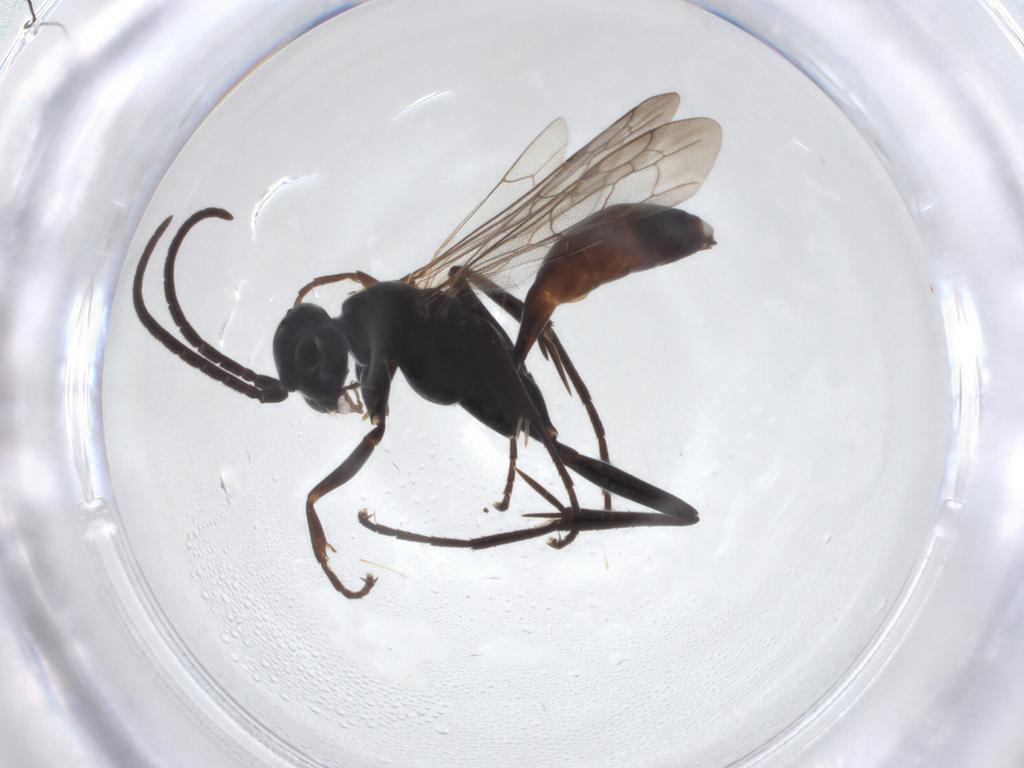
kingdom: Animalia
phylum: Arthropoda
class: Insecta
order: Hymenoptera
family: Pompilidae
